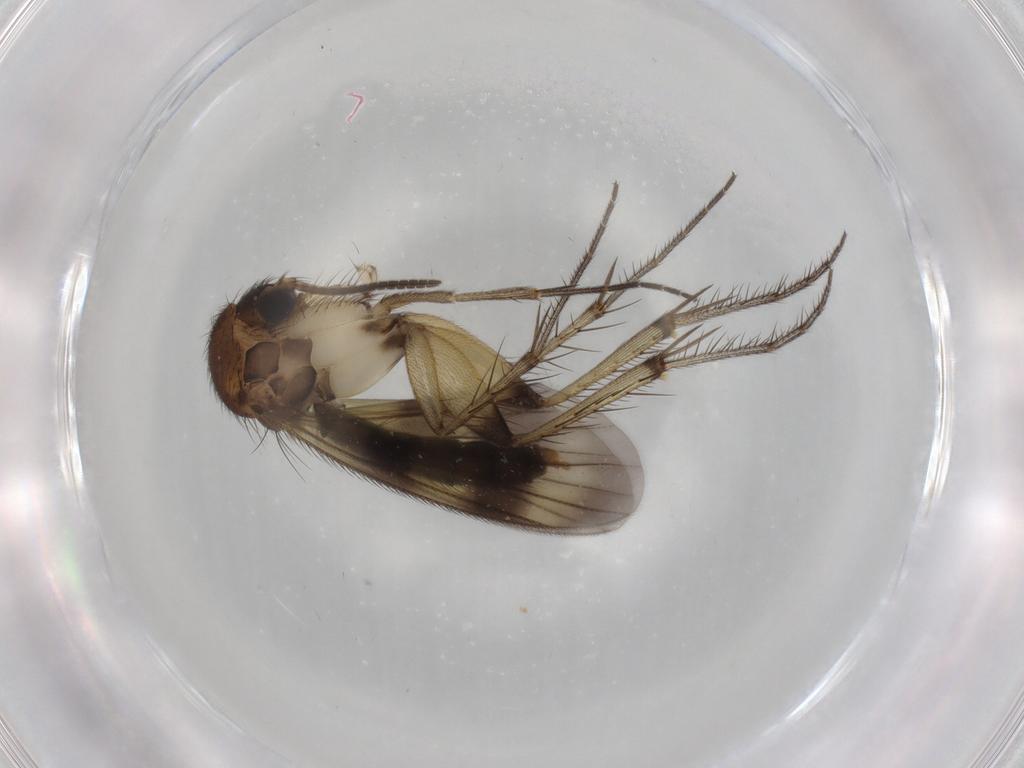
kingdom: Animalia
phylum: Arthropoda
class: Insecta
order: Diptera
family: Mycetophilidae
